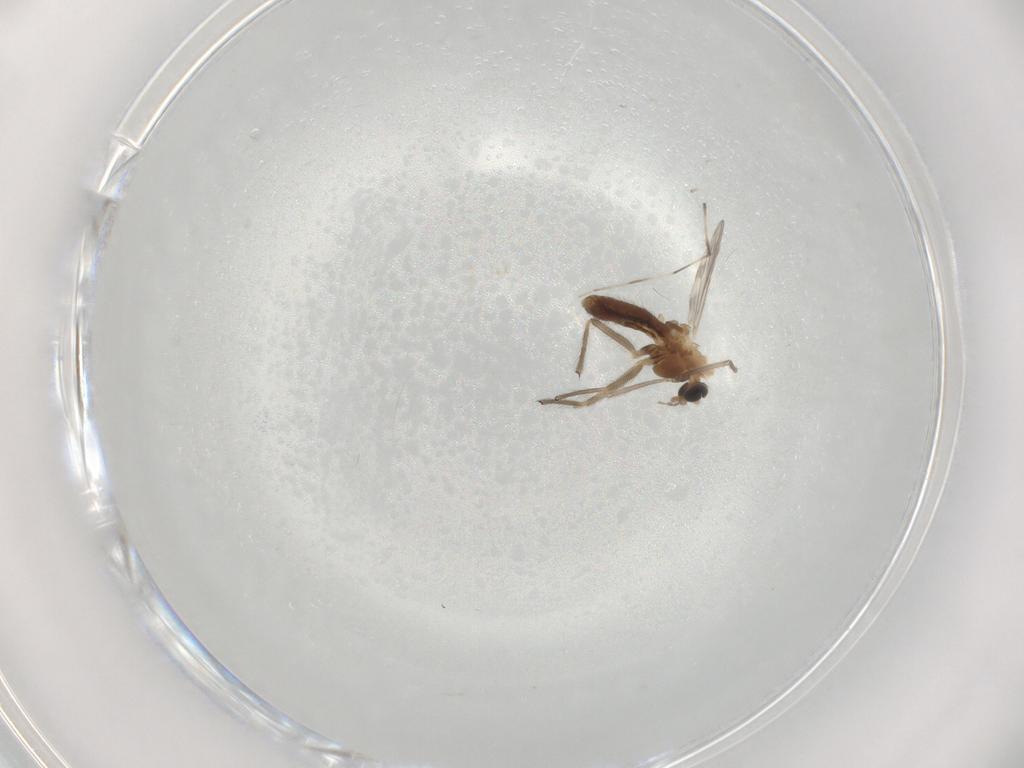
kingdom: Animalia
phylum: Arthropoda
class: Insecta
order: Diptera
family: Chironomidae
